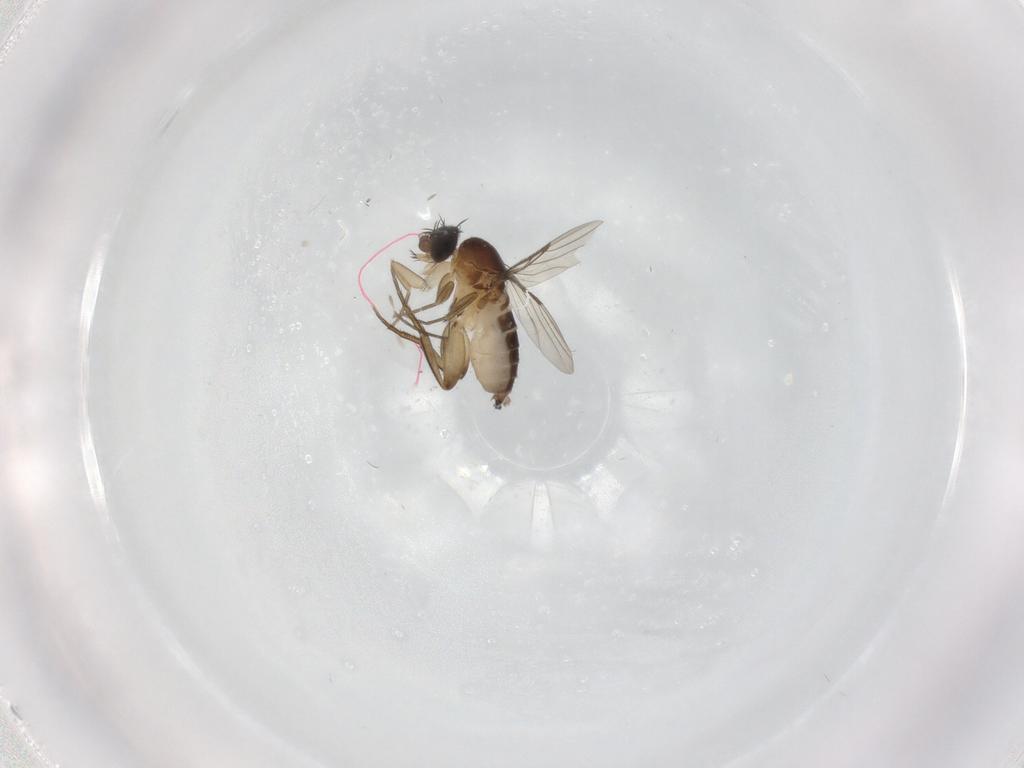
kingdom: Animalia
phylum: Arthropoda
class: Insecta
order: Diptera
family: Phoridae
